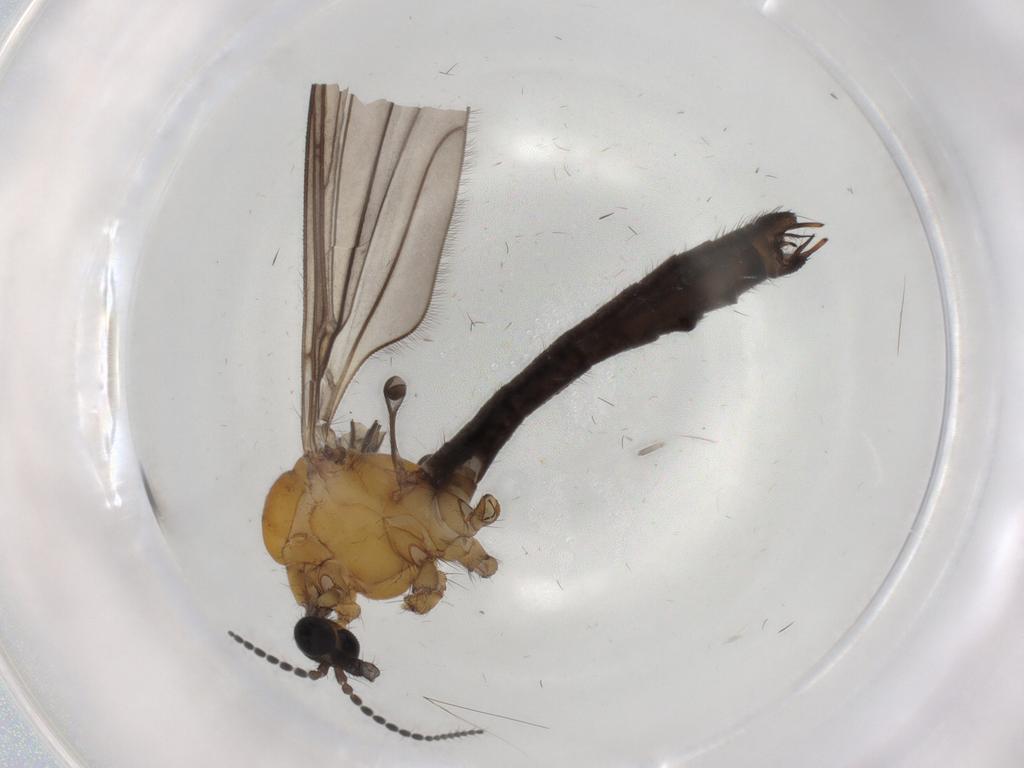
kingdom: Animalia
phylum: Arthropoda
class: Insecta
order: Diptera
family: Limoniidae
